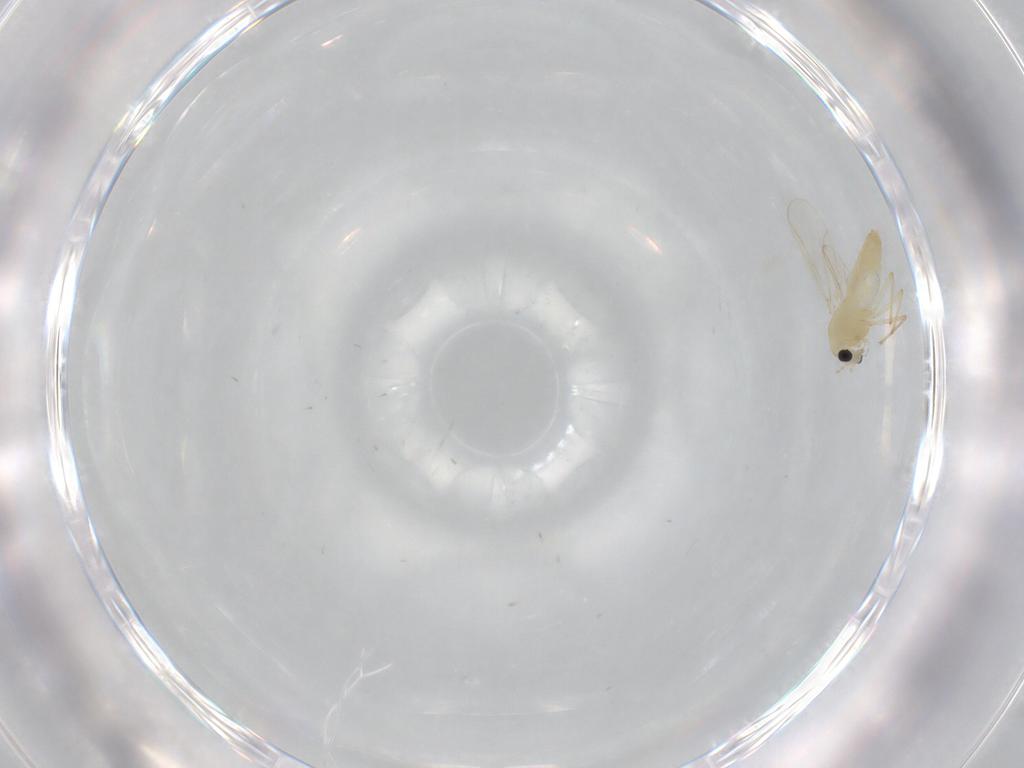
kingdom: Animalia
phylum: Arthropoda
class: Insecta
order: Diptera
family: Chironomidae
